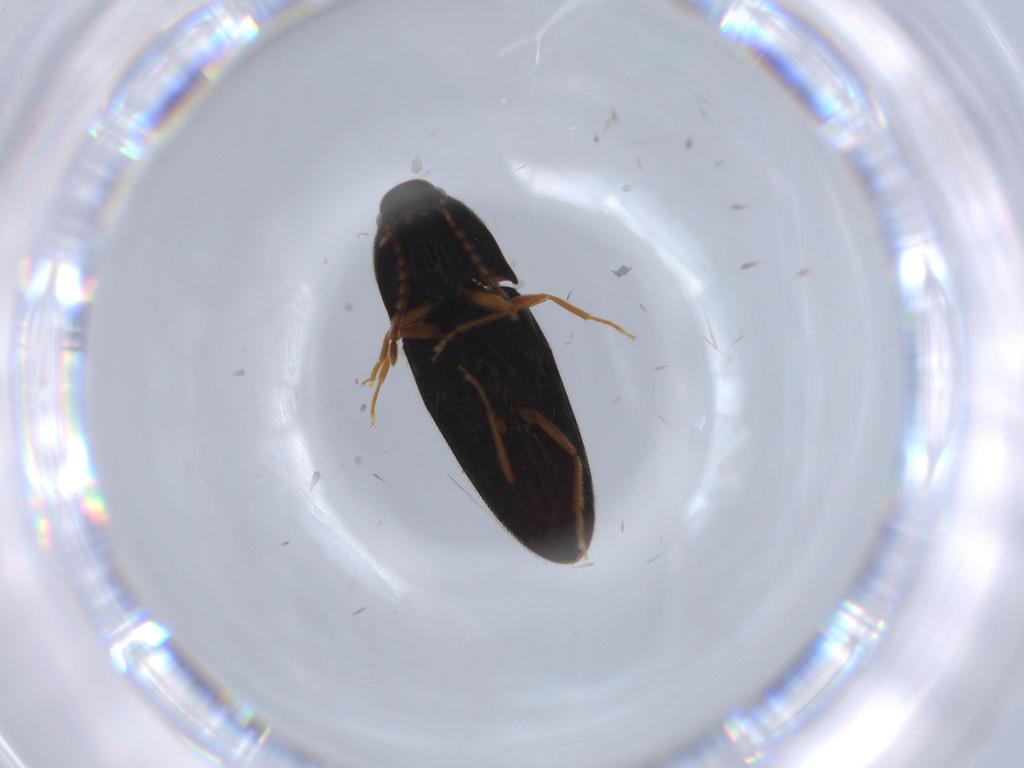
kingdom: Animalia
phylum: Arthropoda
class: Insecta
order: Coleoptera
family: Elateridae
